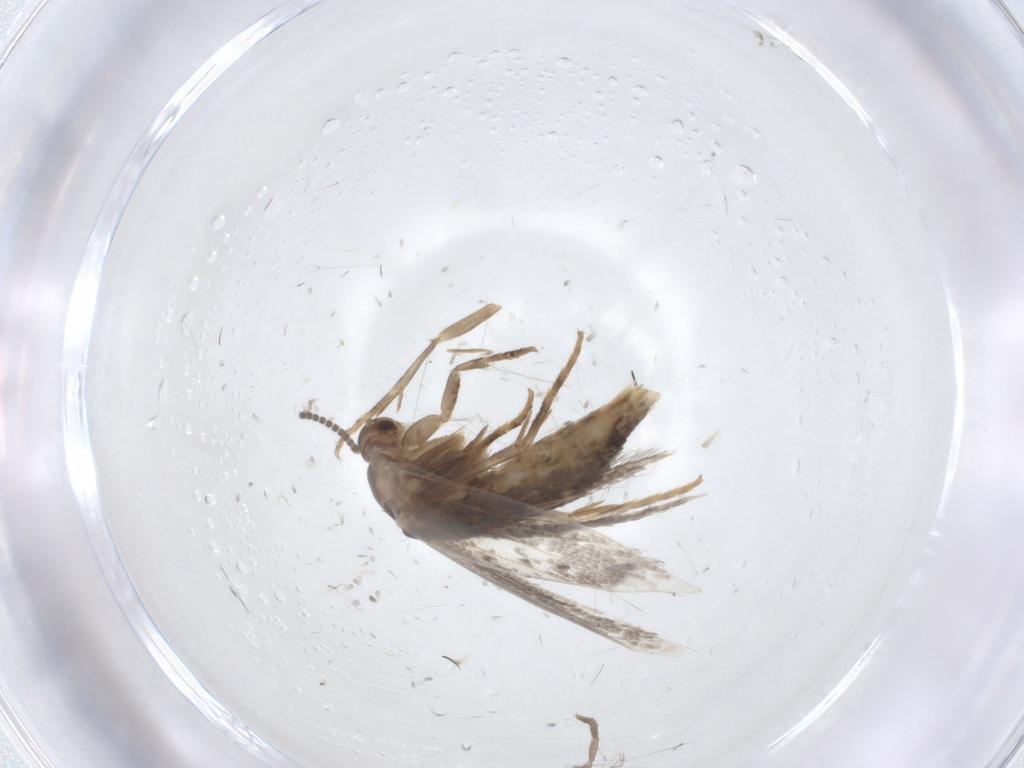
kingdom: Animalia
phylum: Arthropoda
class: Insecta
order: Lepidoptera
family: Elachistidae
